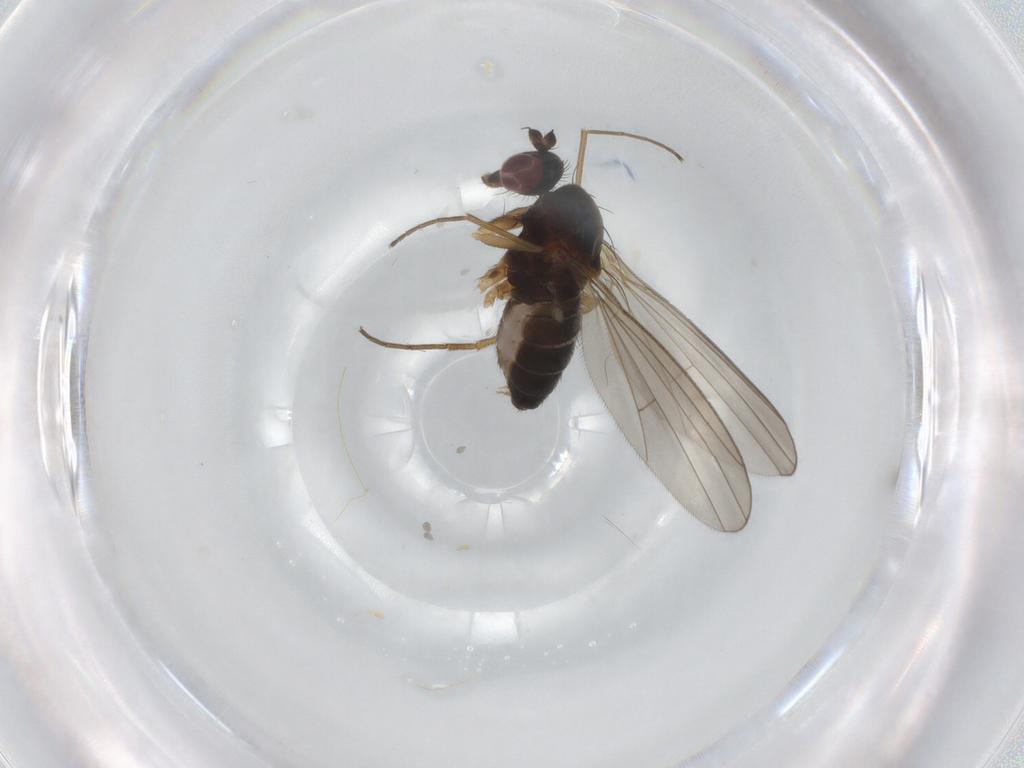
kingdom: Animalia
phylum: Arthropoda
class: Insecta
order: Diptera
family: Dolichopodidae
